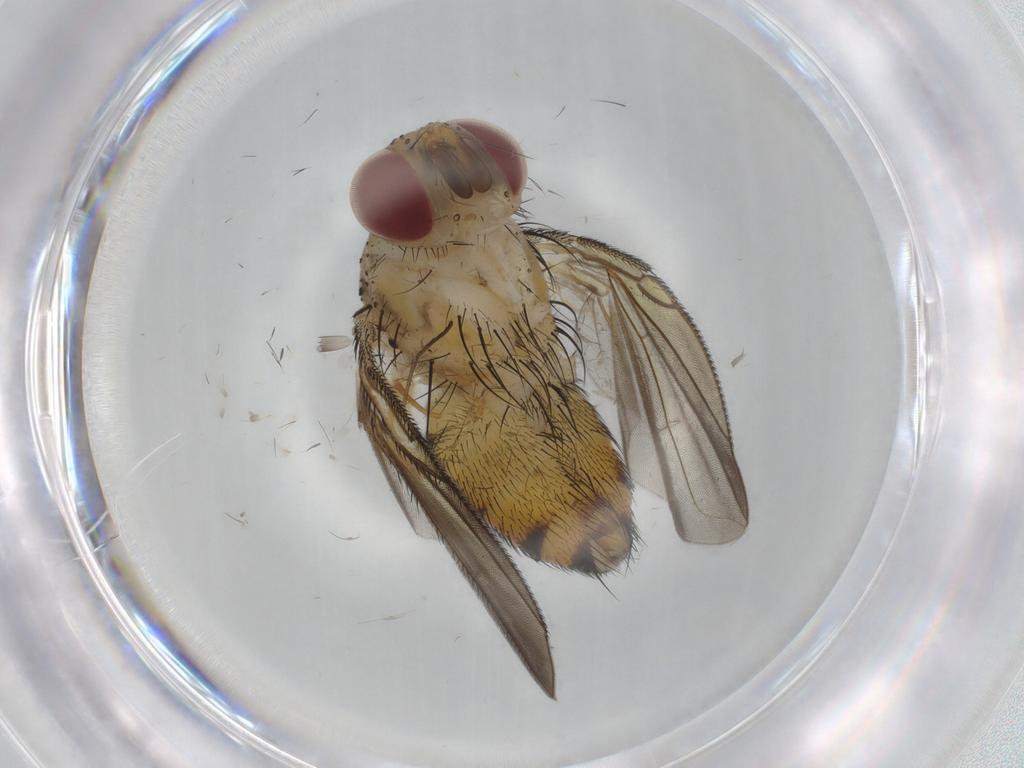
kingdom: Animalia
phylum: Arthropoda
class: Insecta
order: Diptera
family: Tachinidae
